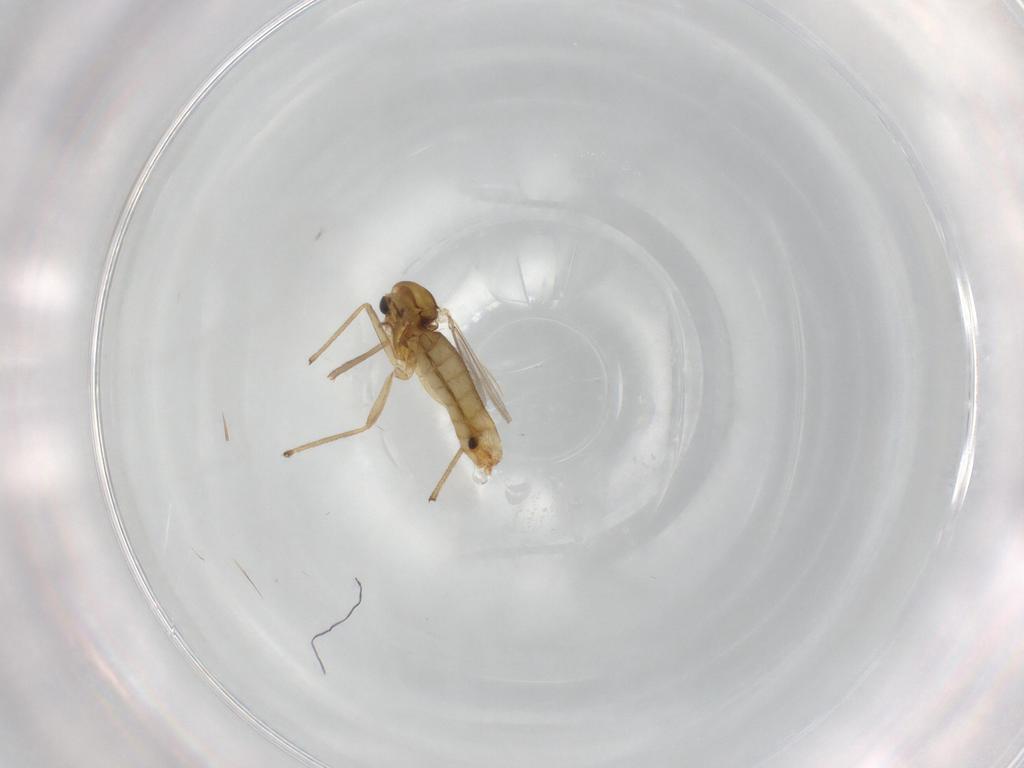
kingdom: Animalia
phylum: Arthropoda
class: Insecta
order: Diptera
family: Chironomidae
